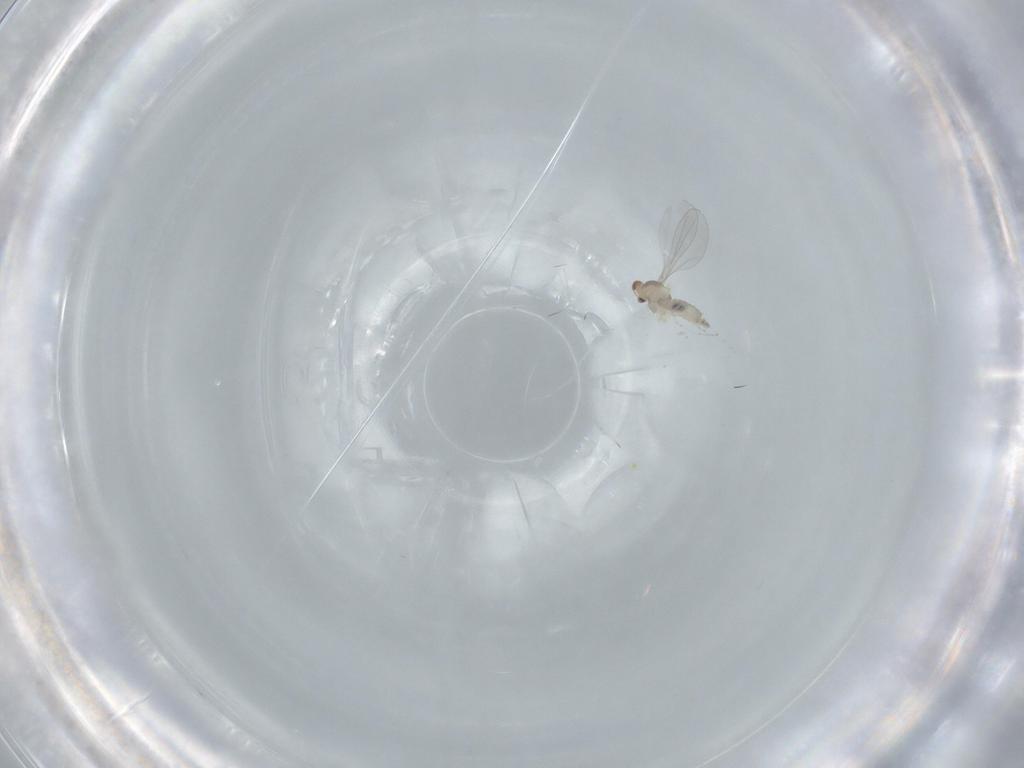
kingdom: Animalia
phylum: Arthropoda
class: Insecta
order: Diptera
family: Cecidomyiidae
